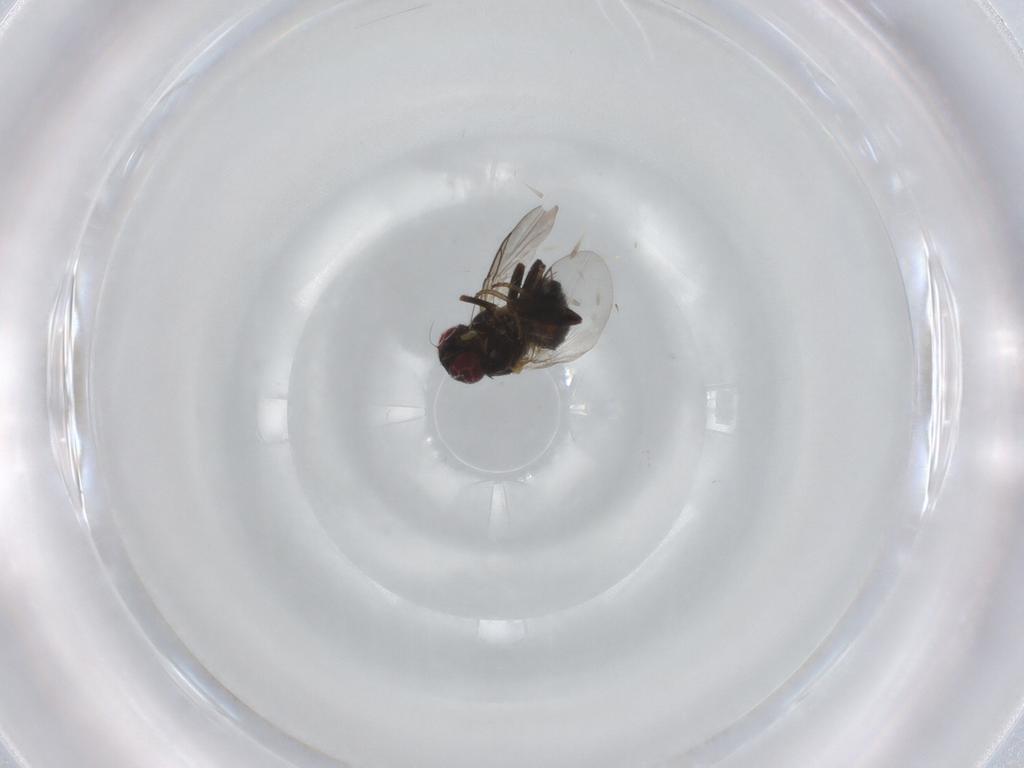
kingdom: Animalia
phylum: Arthropoda
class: Insecta
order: Diptera
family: Agromyzidae
